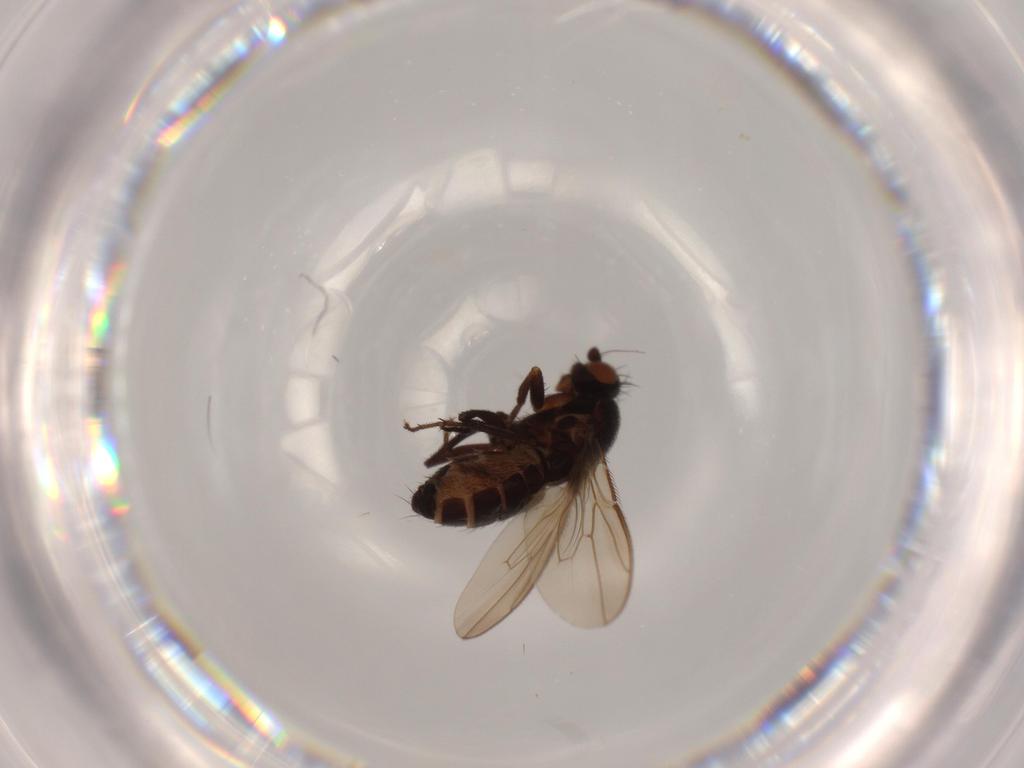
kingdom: Animalia
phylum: Arthropoda
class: Insecta
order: Diptera
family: Sphaeroceridae
